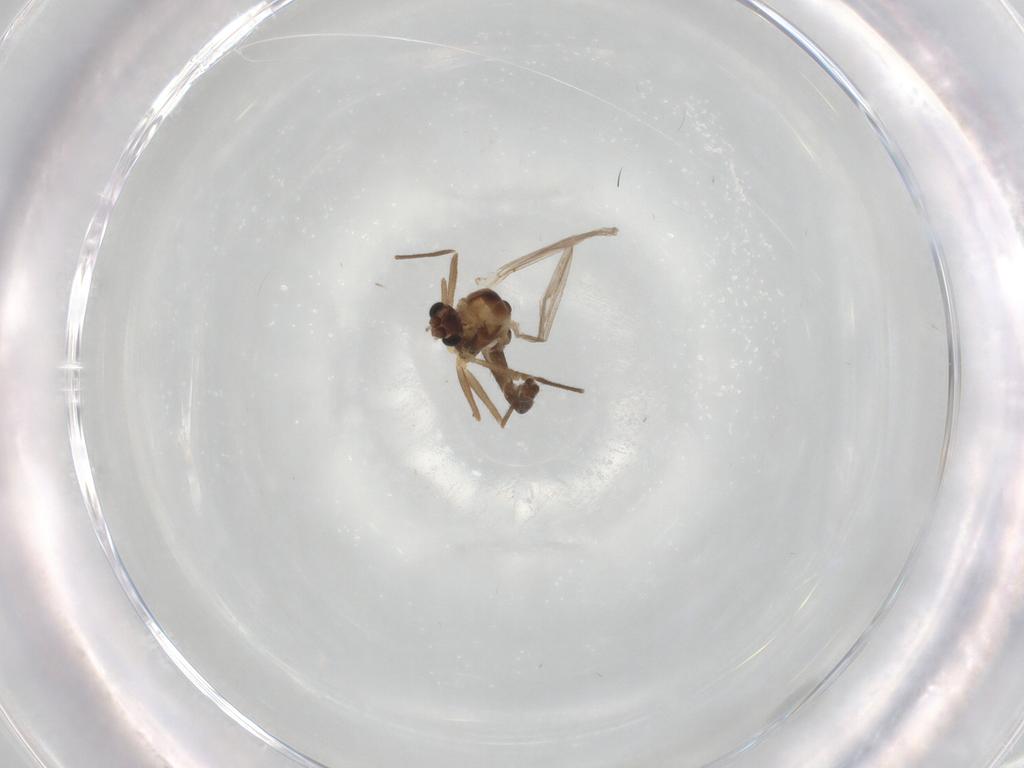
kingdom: Animalia
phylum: Arthropoda
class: Insecta
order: Diptera
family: Chironomidae
